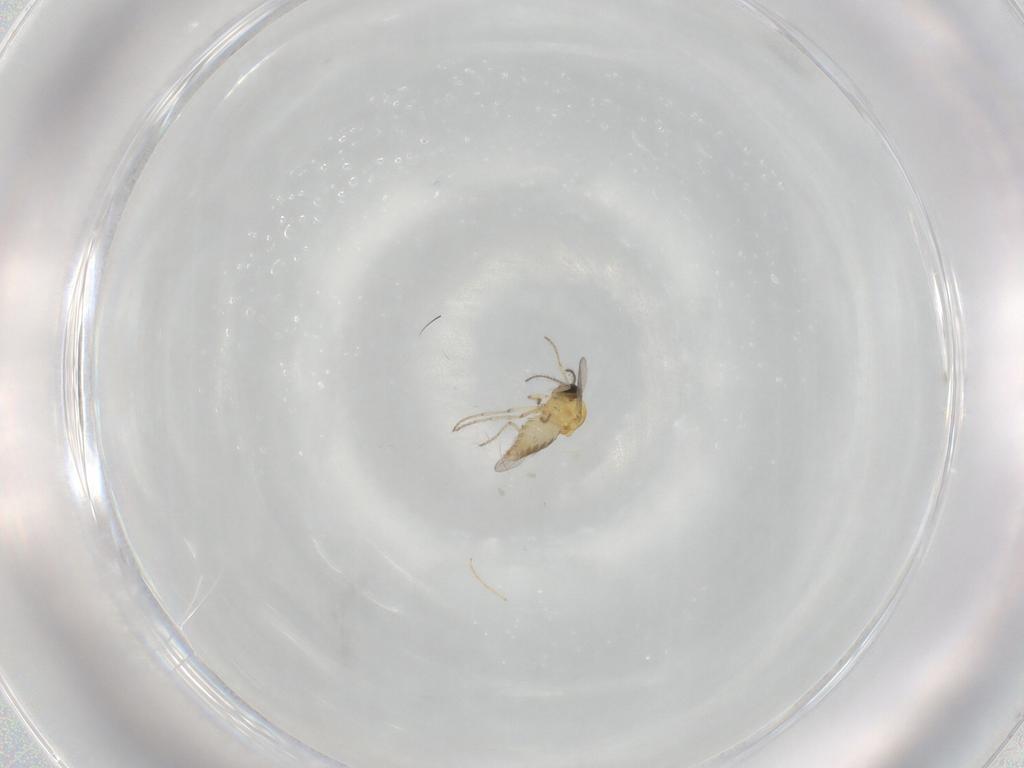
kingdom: Animalia
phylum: Arthropoda
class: Insecta
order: Diptera
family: Ceratopogonidae
